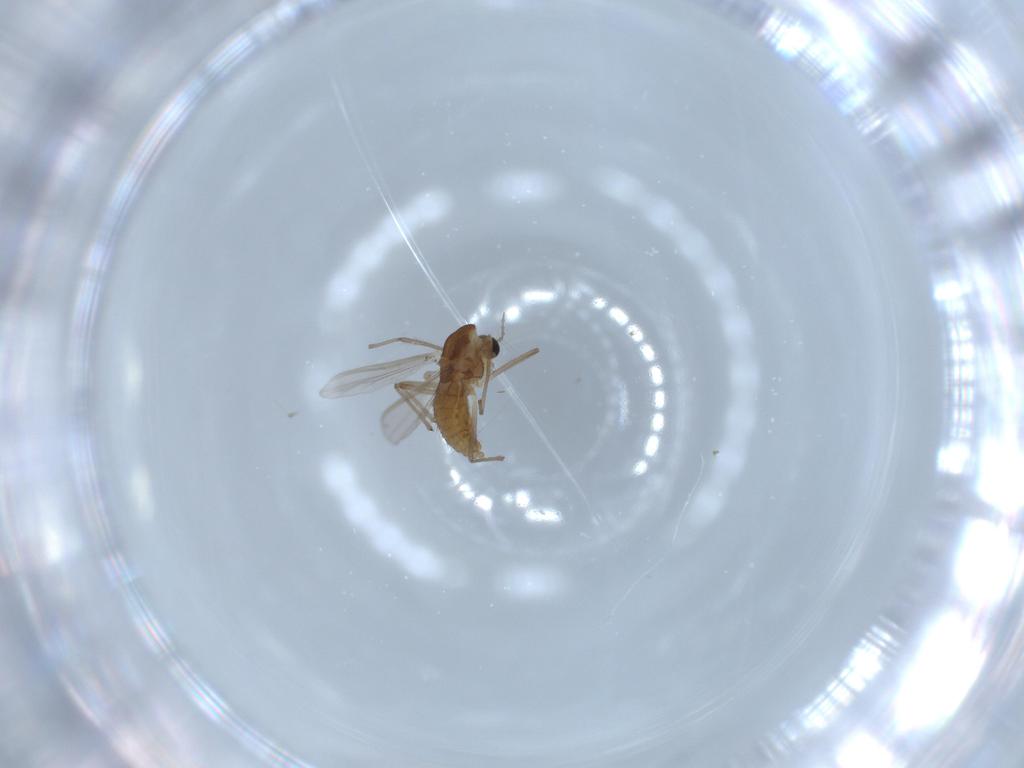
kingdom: Animalia
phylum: Arthropoda
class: Insecta
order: Diptera
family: Chironomidae
